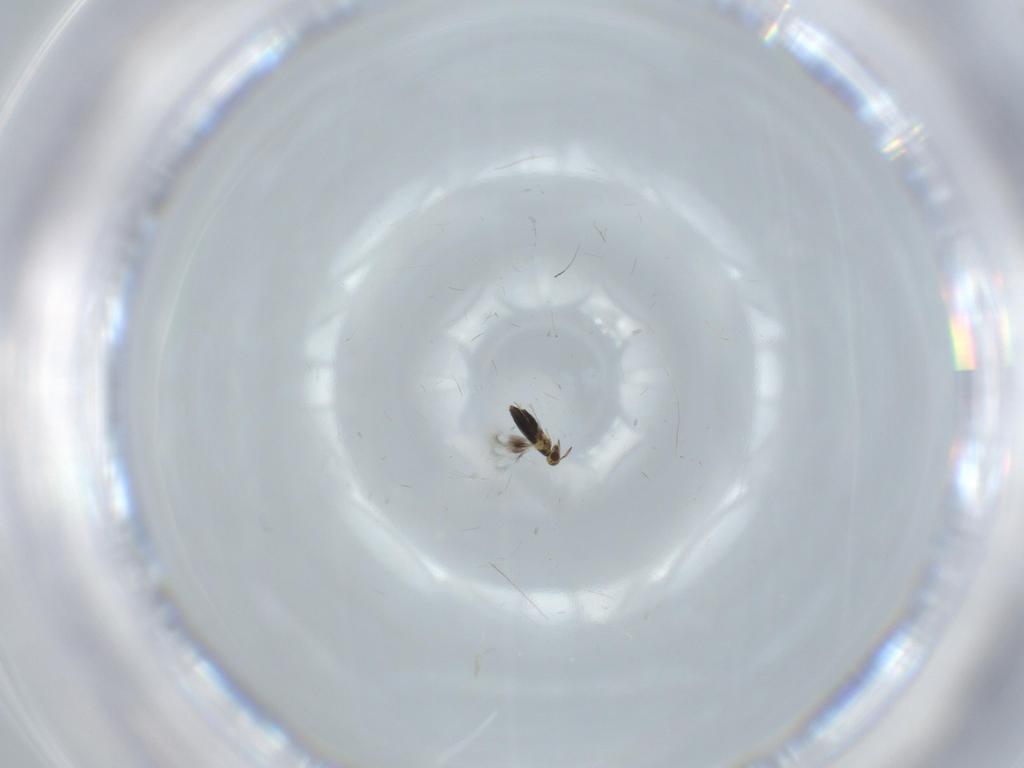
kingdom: Animalia
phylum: Arthropoda
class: Insecta
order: Hymenoptera
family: Signiphoridae
